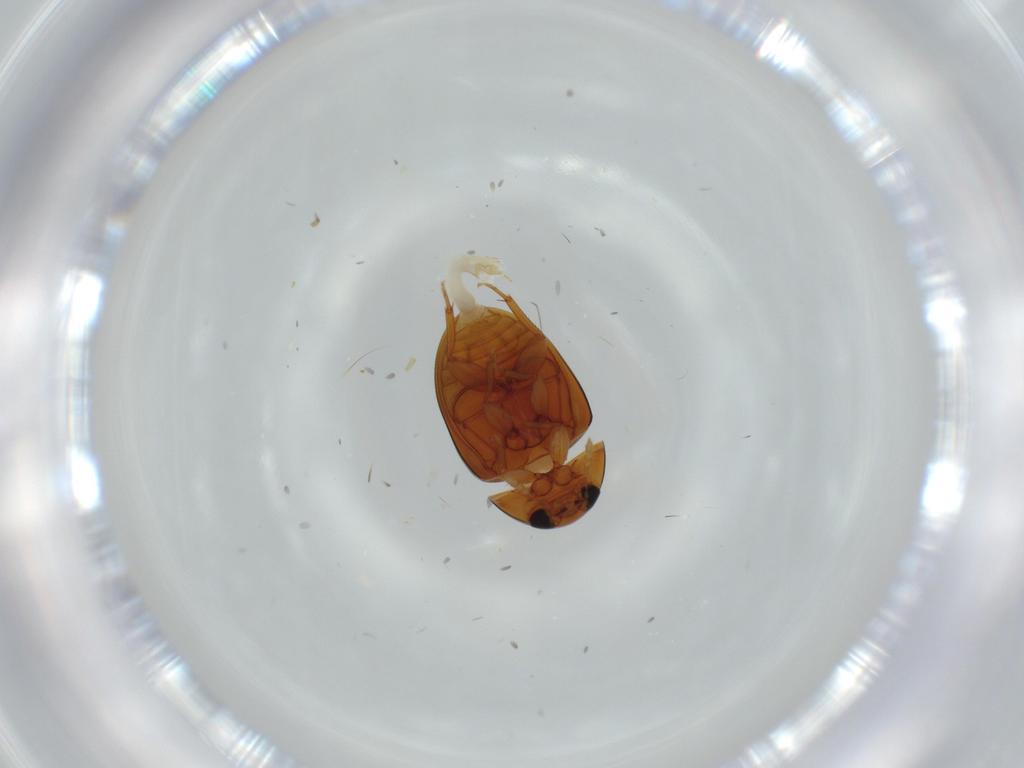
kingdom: Animalia
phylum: Arthropoda
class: Insecta
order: Coleoptera
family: Phalacridae
